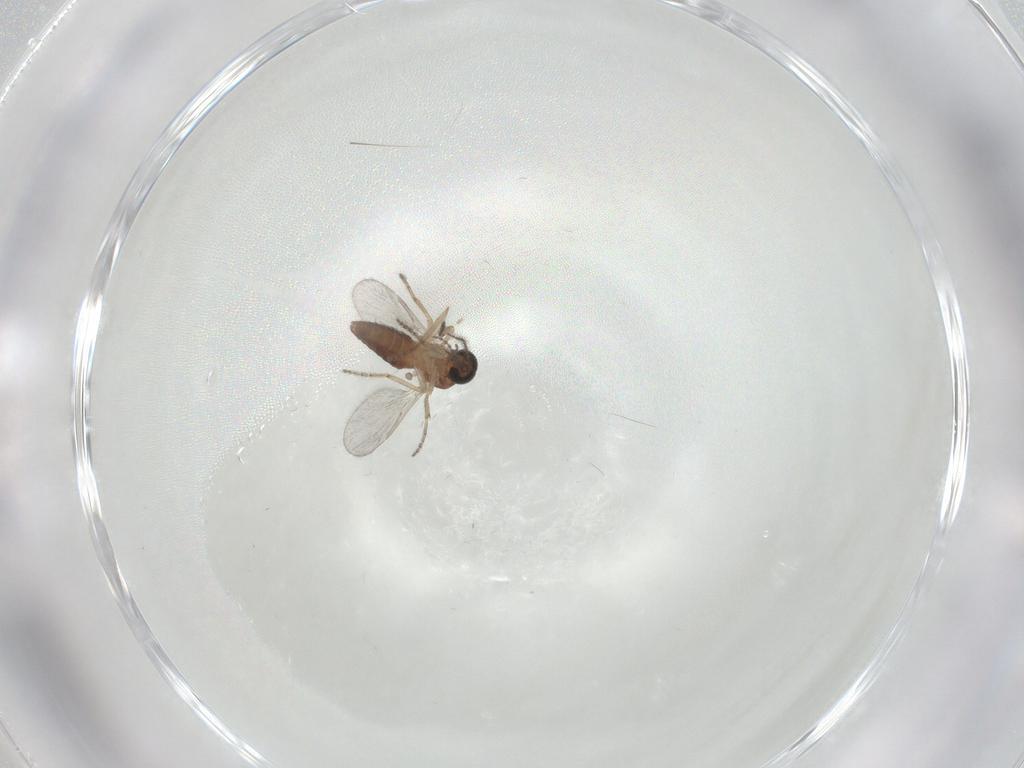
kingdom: Animalia
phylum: Arthropoda
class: Insecta
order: Diptera
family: Ceratopogonidae
